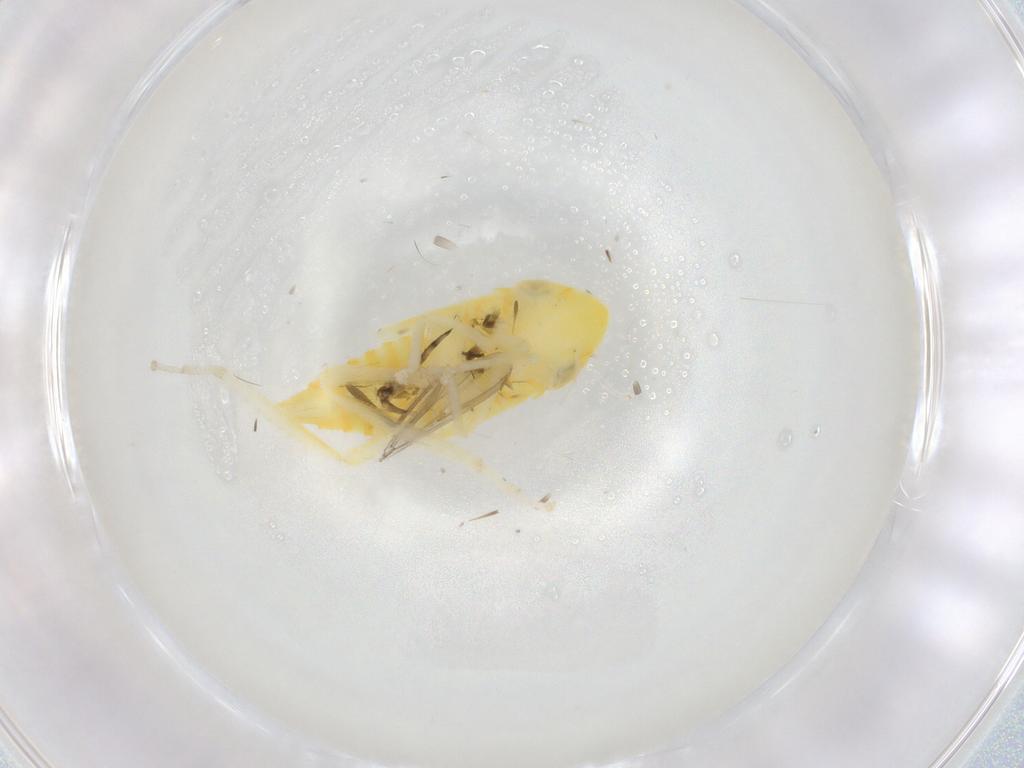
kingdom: Animalia
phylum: Arthropoda
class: Insecta
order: Hemiptera
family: Cicadellidae
